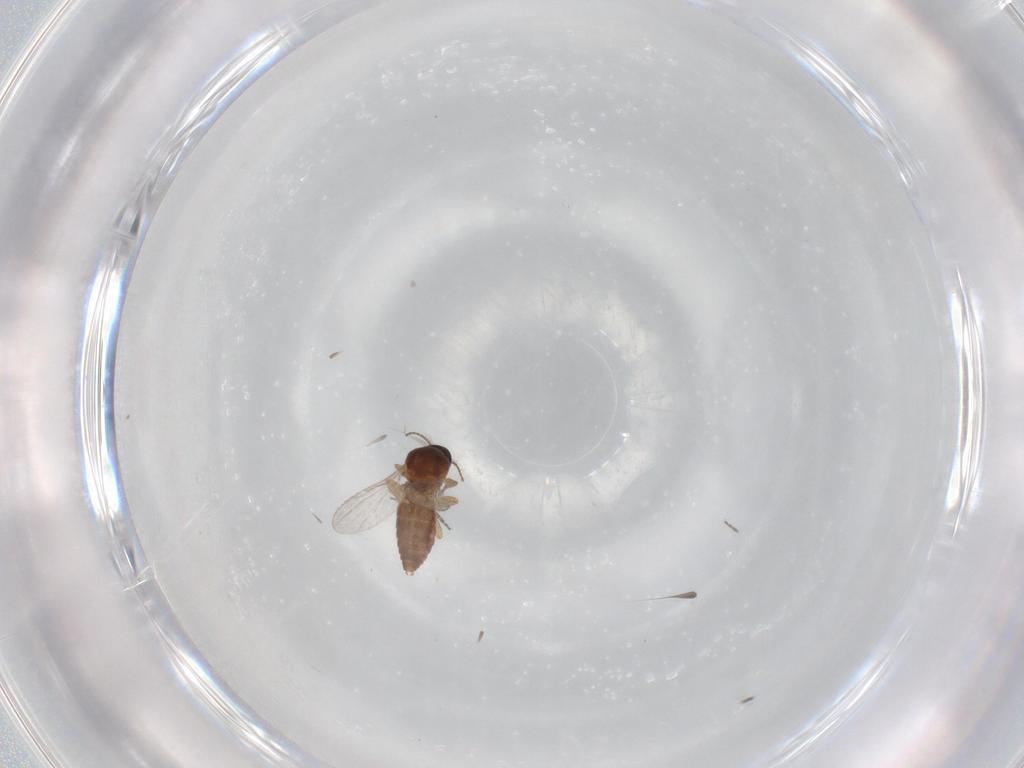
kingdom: Animalia
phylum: Arthropoda
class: Insecta
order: Diptera
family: Ceratopogonidae
